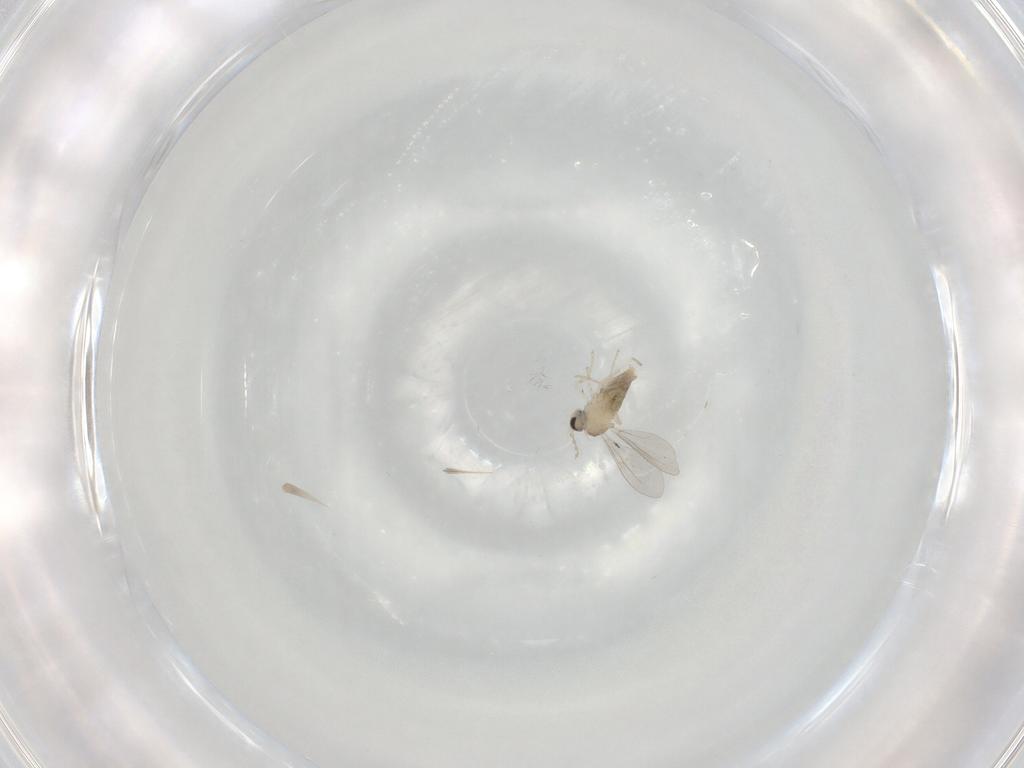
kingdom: Animalia
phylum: Arthropoda
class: Insecta
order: Diptera
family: Cecidomyiidae
